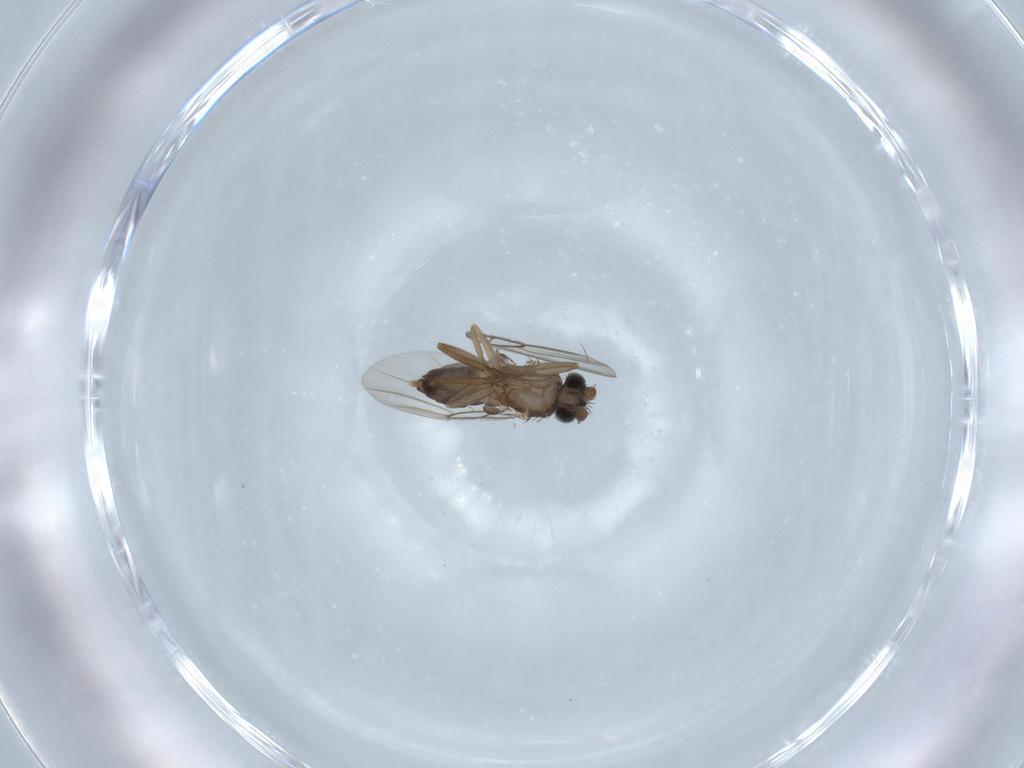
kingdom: Animalia
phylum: Arthropoda
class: Insecta
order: Diptera
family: Phoridae
